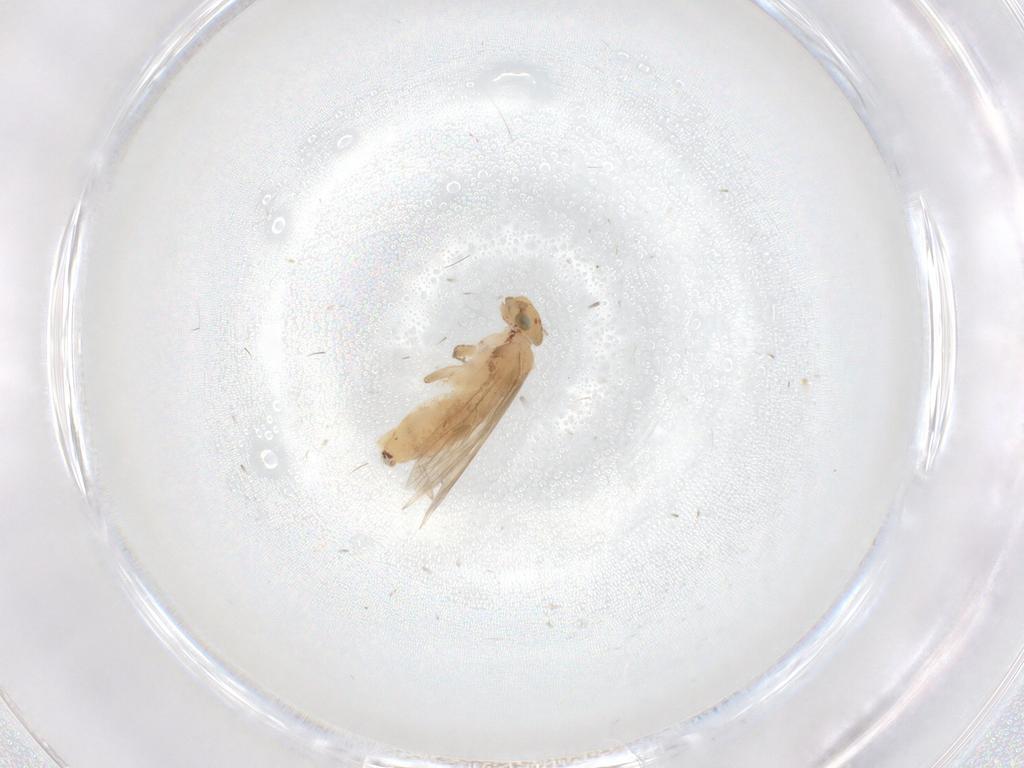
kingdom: Animalia
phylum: Arthropoda
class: Insecta
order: Psocodea
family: Lepidopsocidae
